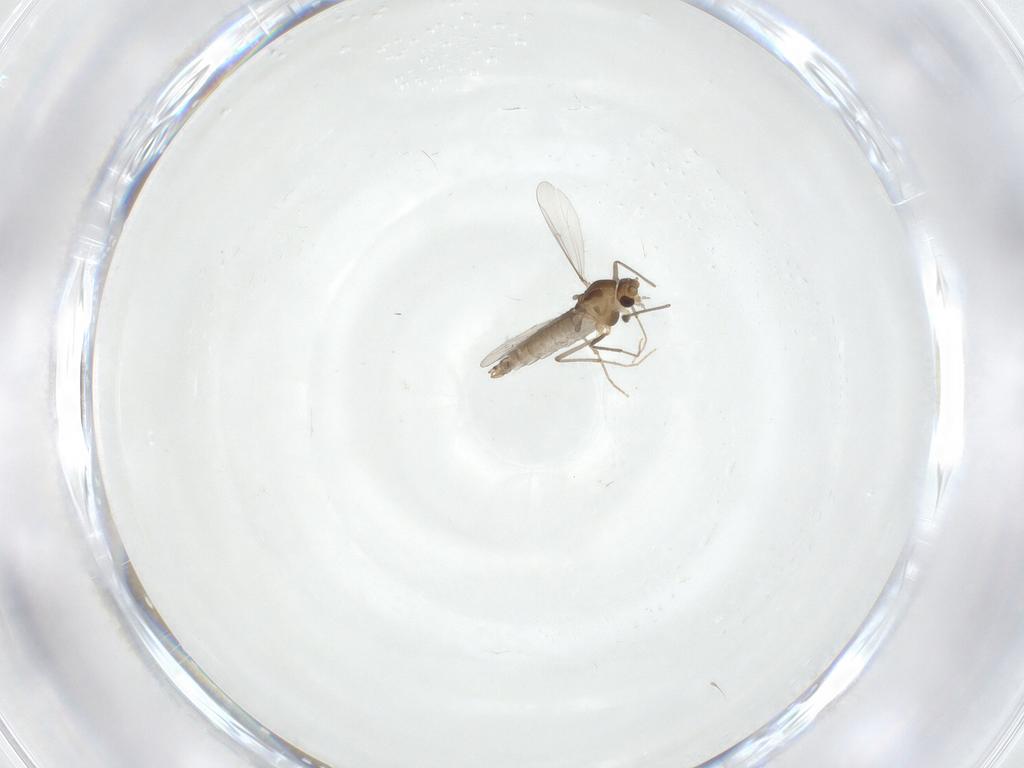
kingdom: Animalia
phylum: Arthropoda
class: Insecta
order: Diptera
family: Chironomidae
